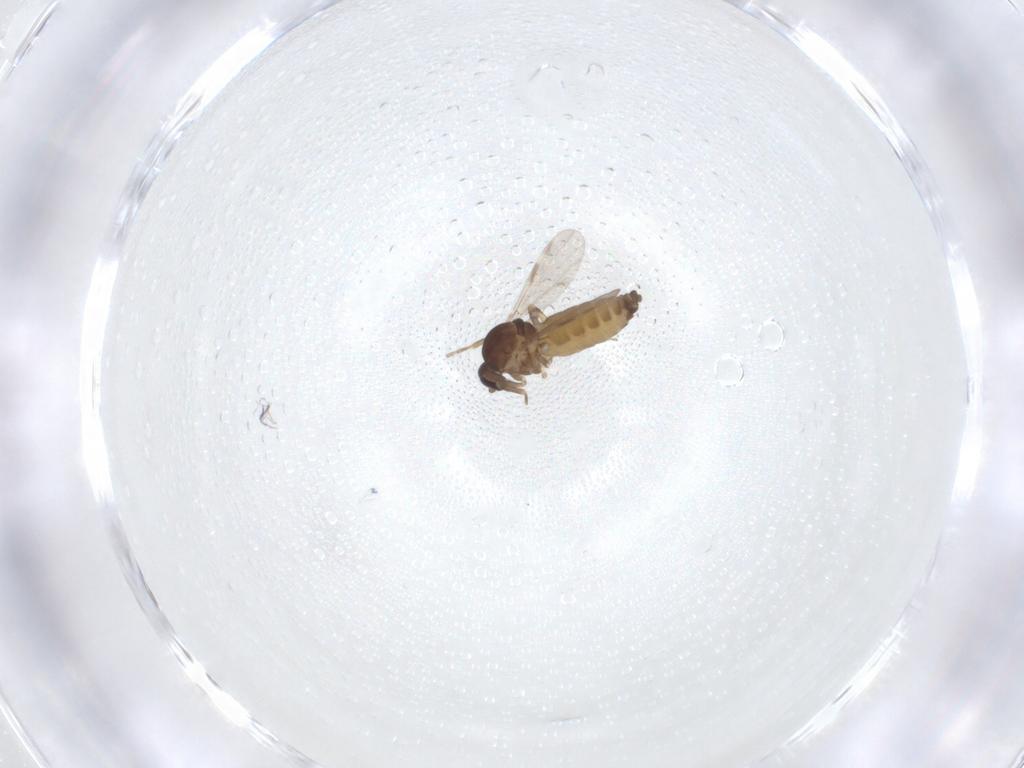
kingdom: Animalia
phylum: Arthropoda
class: Insecta
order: Diptera
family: Ceratopogonidae
